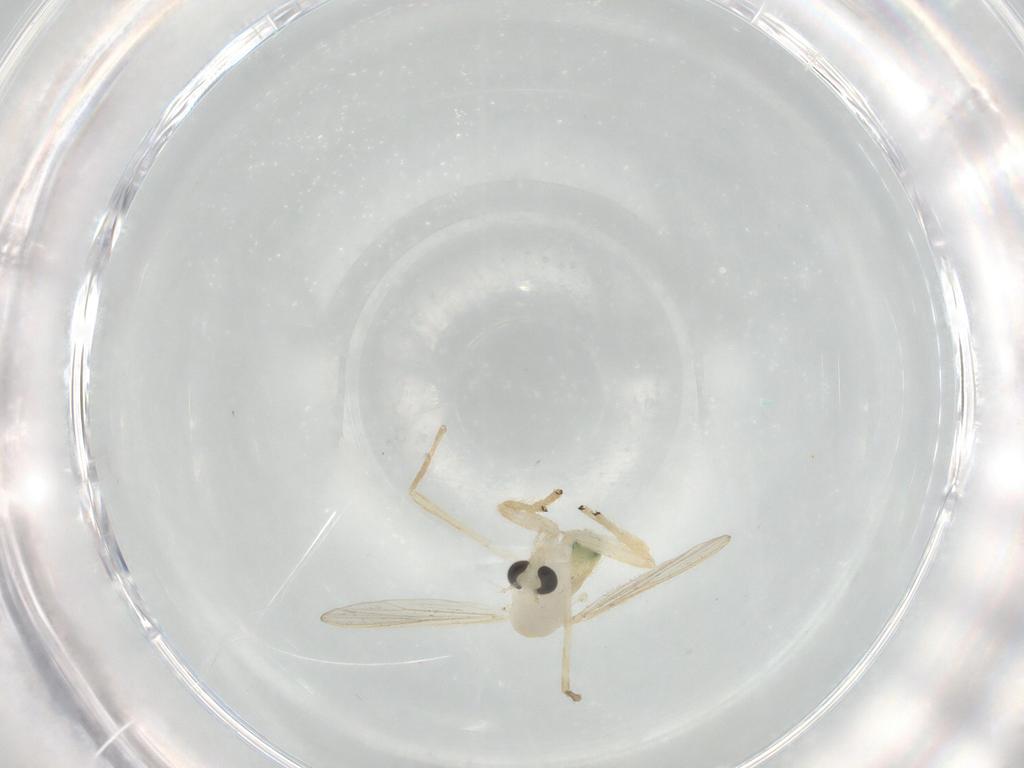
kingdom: Animalia
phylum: Arthropoda
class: Insecta
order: Diptera
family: Chironomidae
